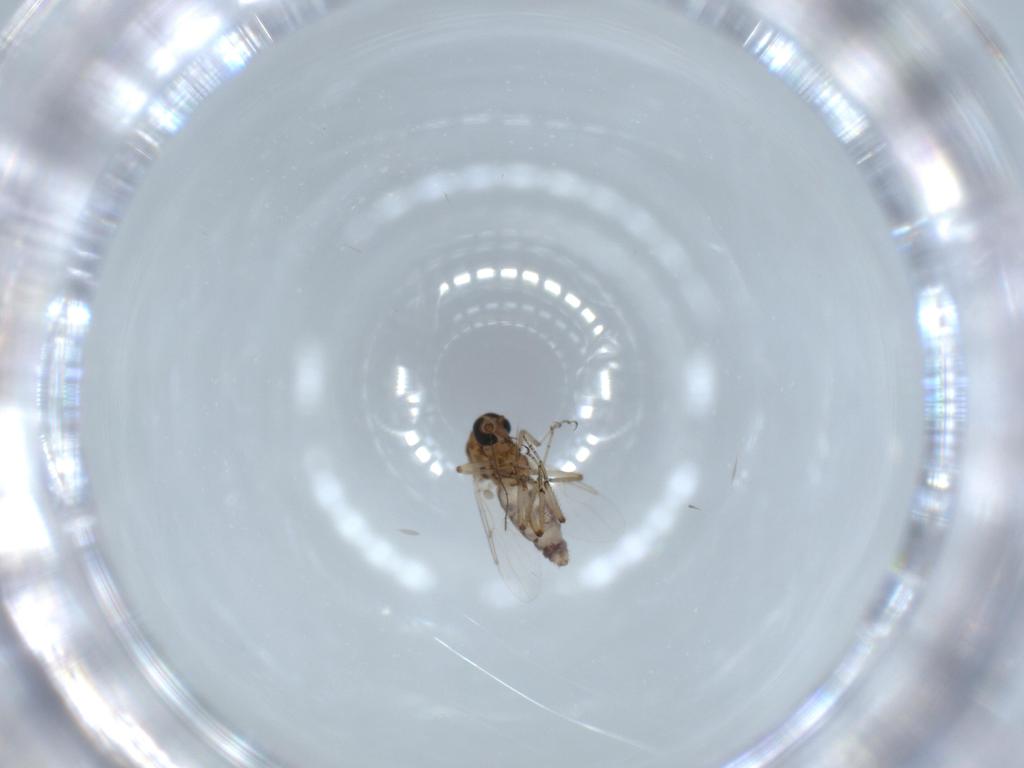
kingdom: Animalia
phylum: Arthropoda
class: Insecta
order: Diptera
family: Ceratopogonidae
